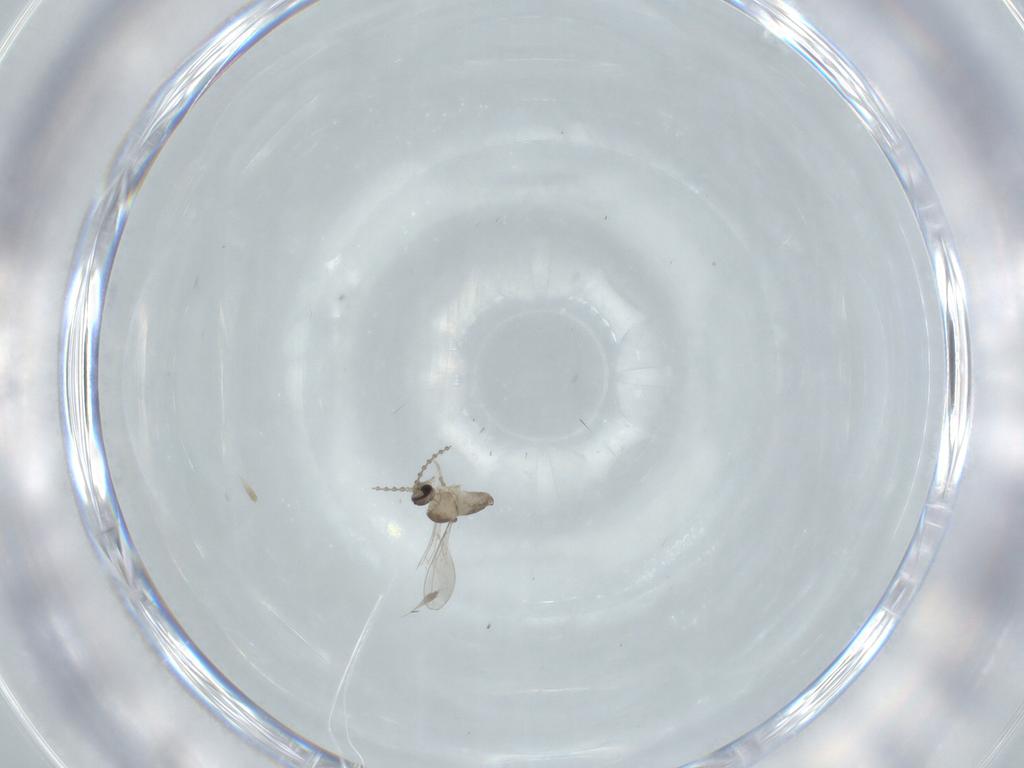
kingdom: Animalia
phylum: Arthropoda
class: Insecta
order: Diptera
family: Cecidomyiidae
